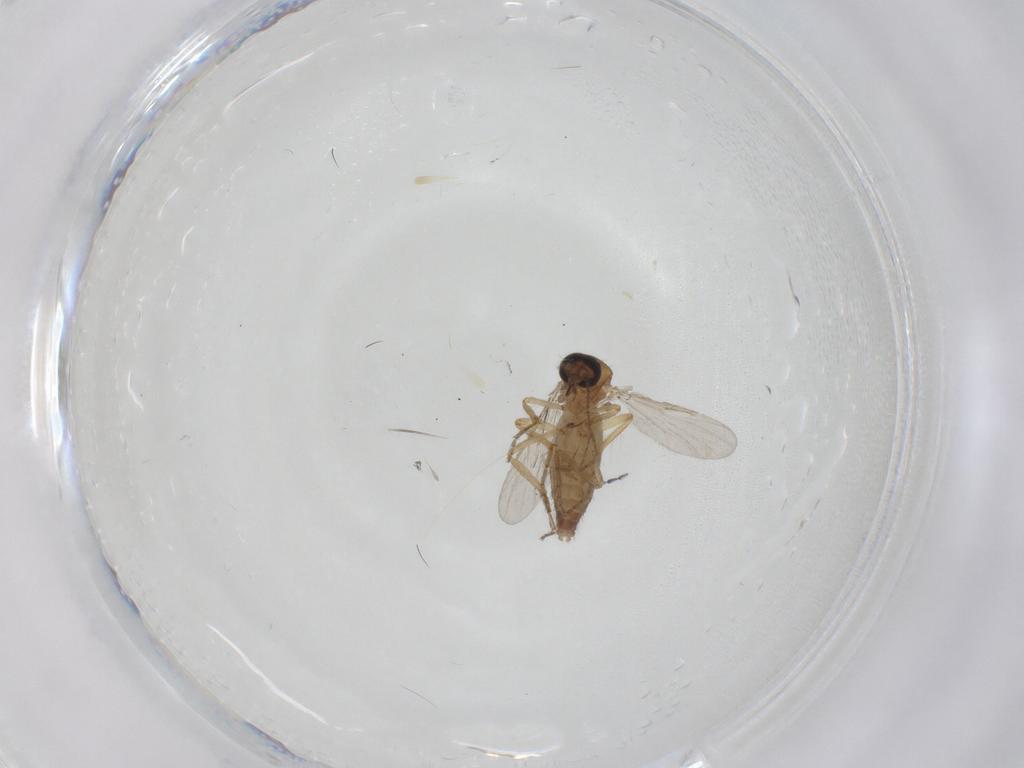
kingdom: Animalia
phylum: Arthropoda
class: Insecta
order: Diptera
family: Ceratopogonidae
